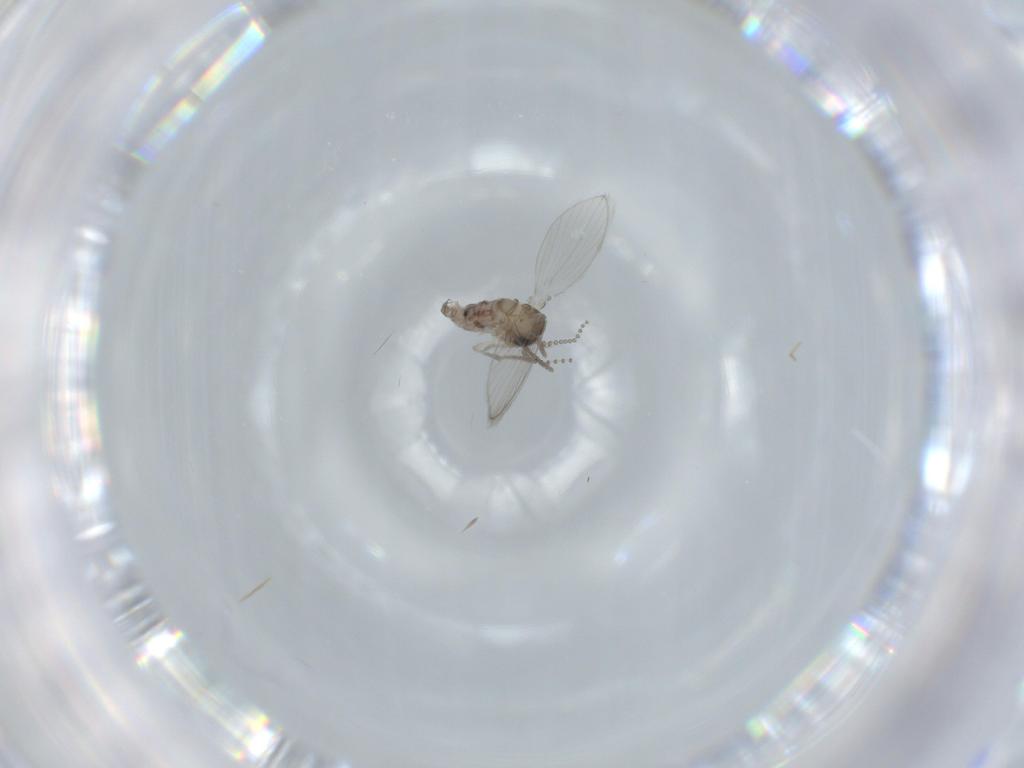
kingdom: Animalia
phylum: Arthropoda
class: Insecta
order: Diptera
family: Psychodidae
